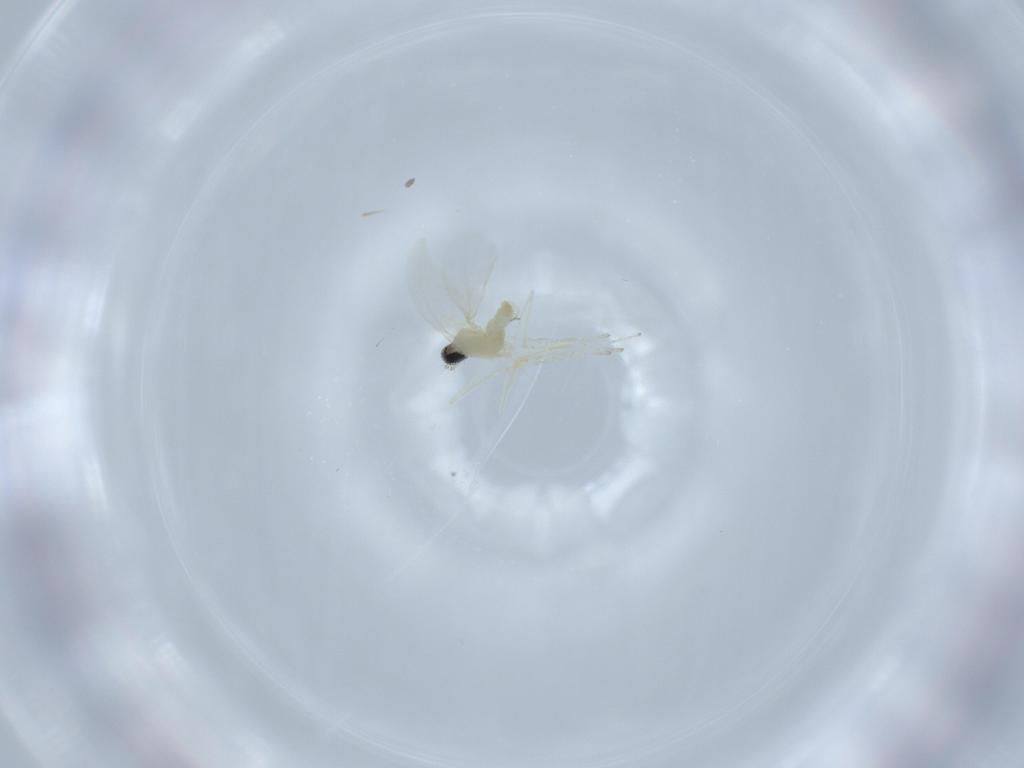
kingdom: Animalia
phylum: Arthropoda
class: Insecta
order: Diptera
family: Cecidomyiidae
